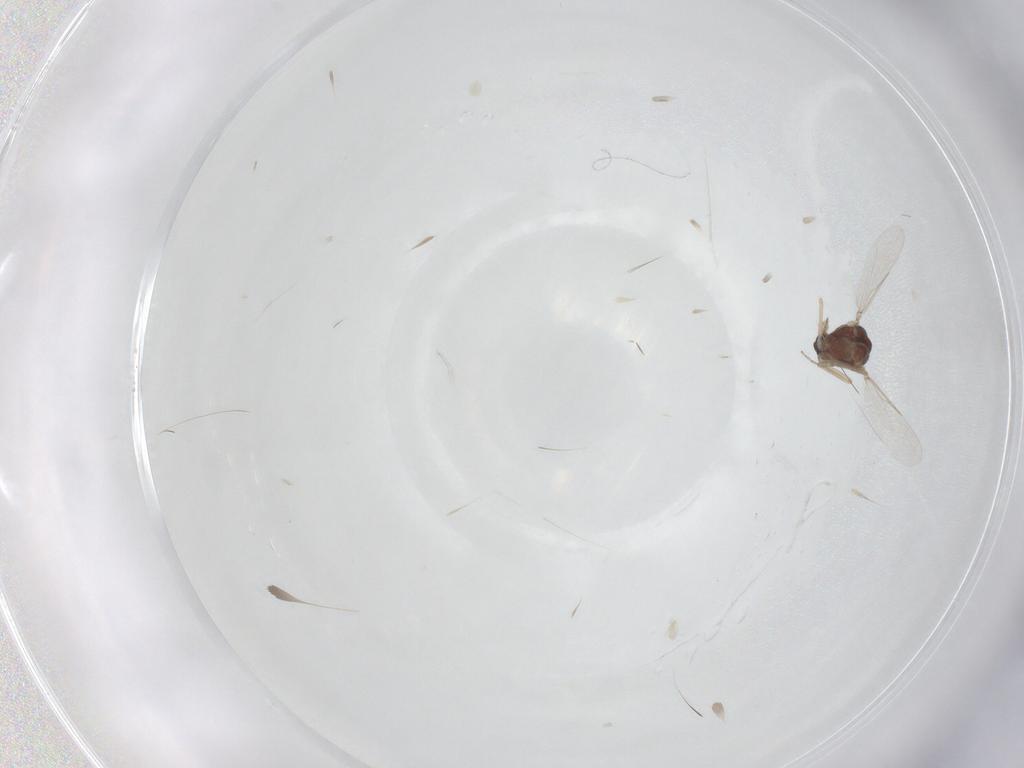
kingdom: Animalia
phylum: Arthropoda
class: Insecta
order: Diptera
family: Ceratopogonidae
